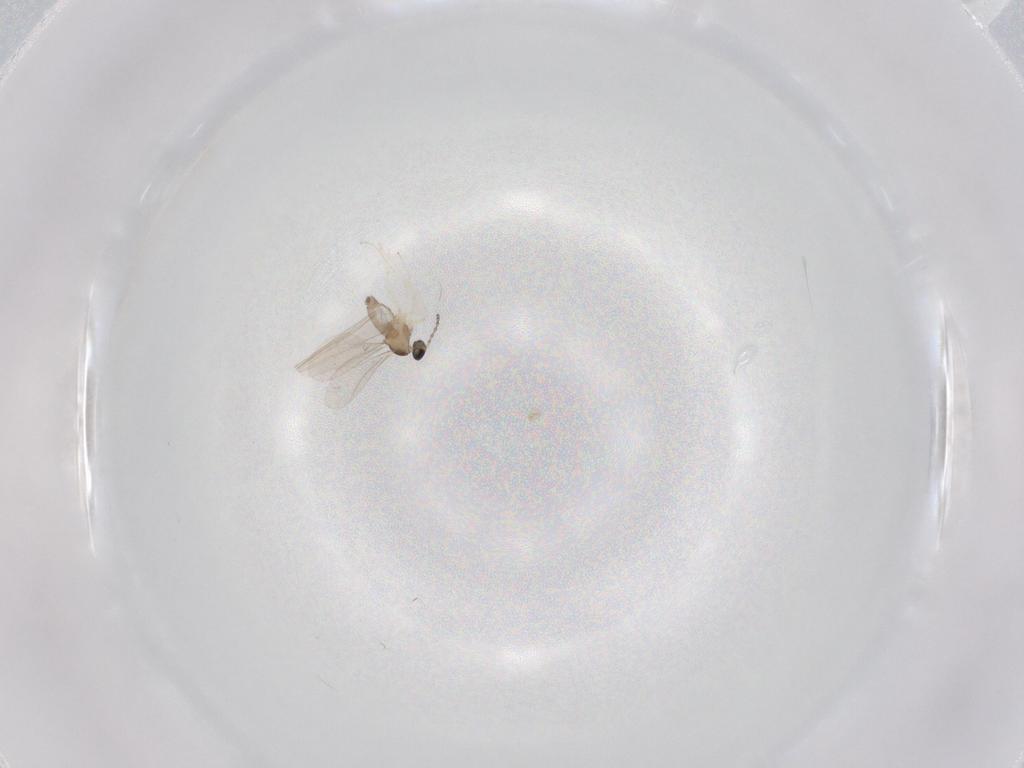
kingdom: Animalia
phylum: Arthropoda
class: Insecta
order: Diptera
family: Cecidomyiidae
